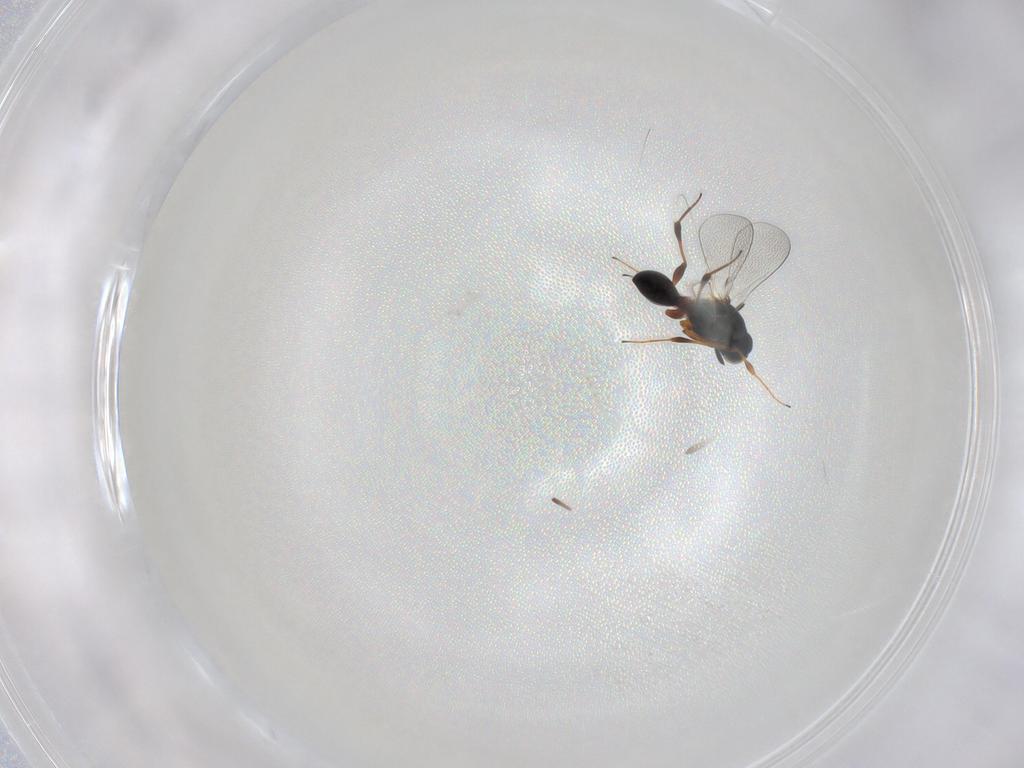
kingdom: Animalia
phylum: Arthropoda
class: Insecta
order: Hymenoptera
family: Platygastridae
